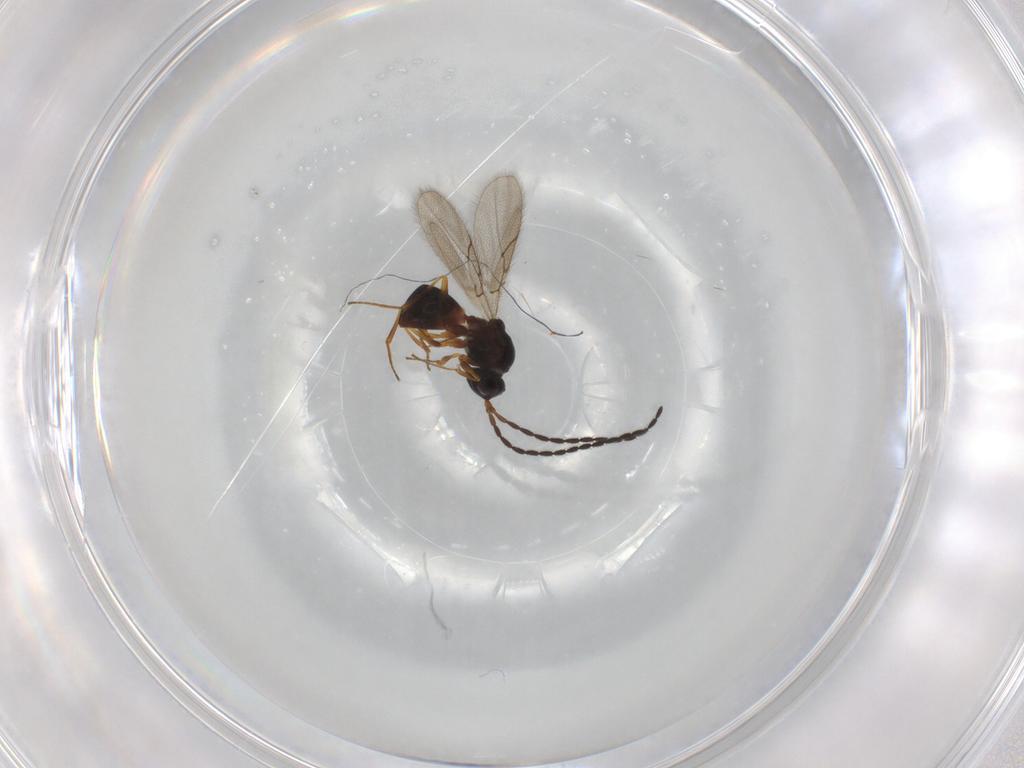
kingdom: Animalia
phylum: Arthropoda
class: Insecta
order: Hymenoptera
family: Figitidae
